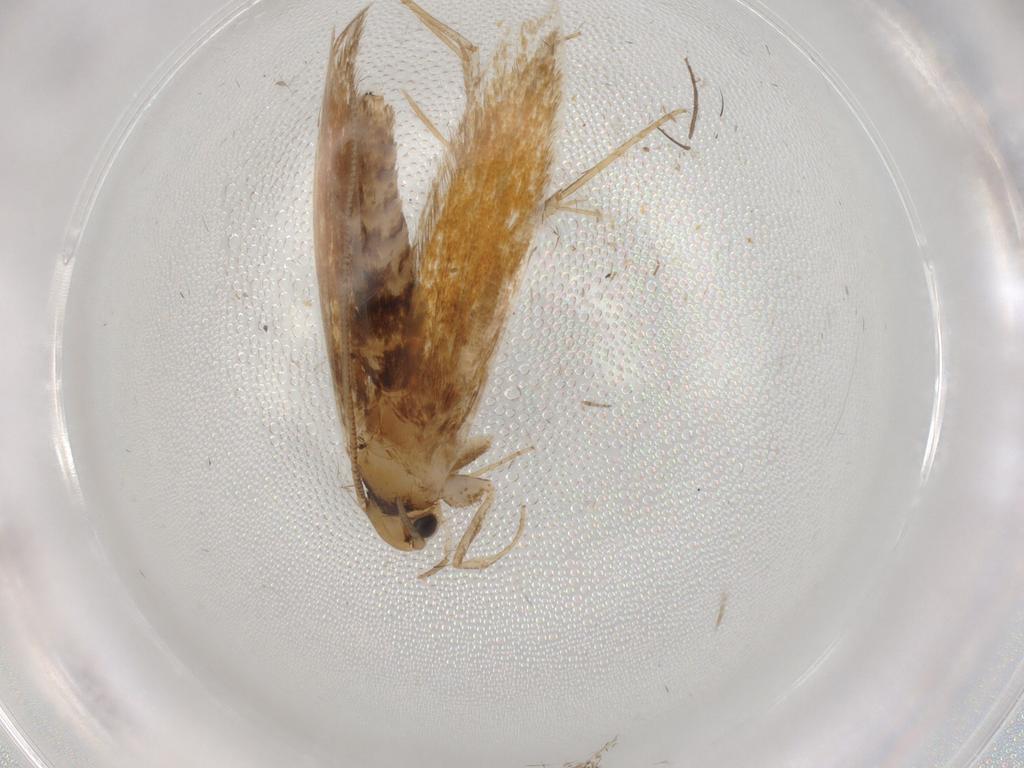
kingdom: Animalia
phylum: Arthropoda
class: Insecta
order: Lepidoptera
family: Tineidae
